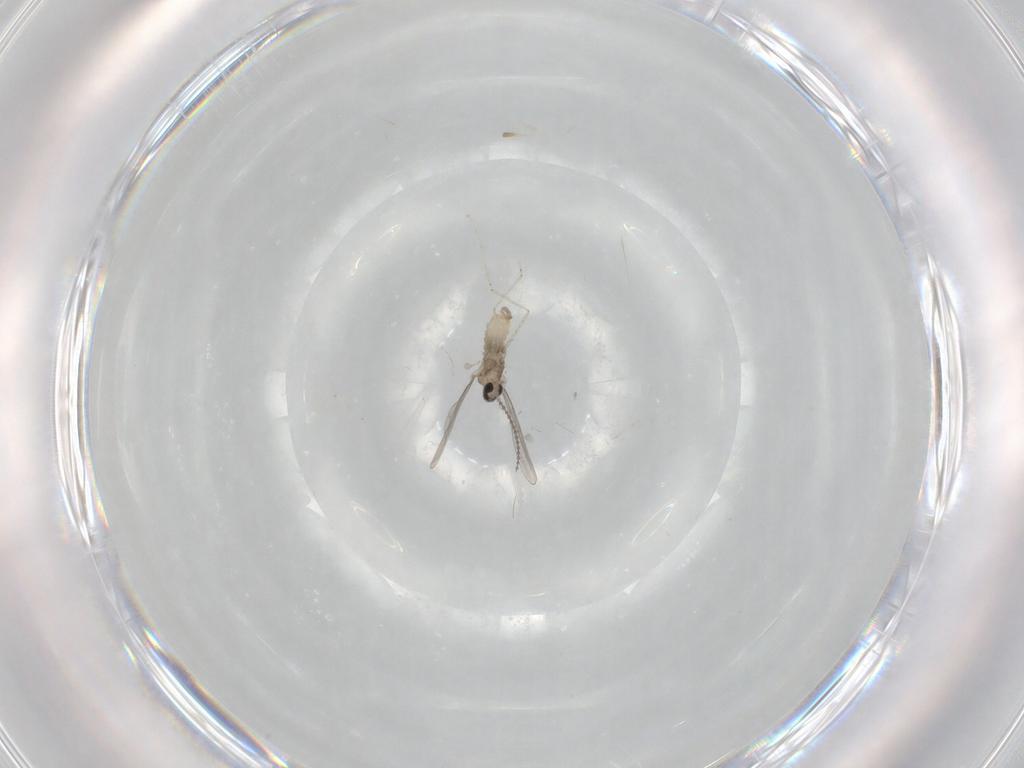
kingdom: Animalia
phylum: Arthropoda
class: Insecta
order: Diptera
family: Cecidomyiidae
